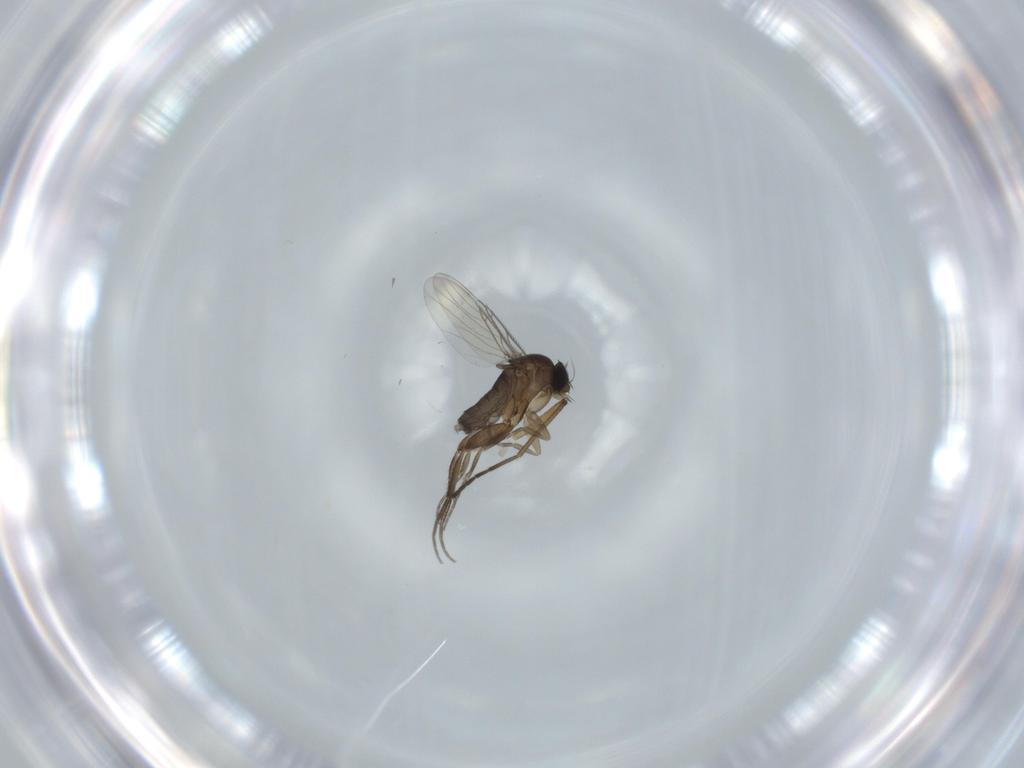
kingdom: Animalia
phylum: Arthropoda
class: Insecta
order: Diptera
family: Phoridae
